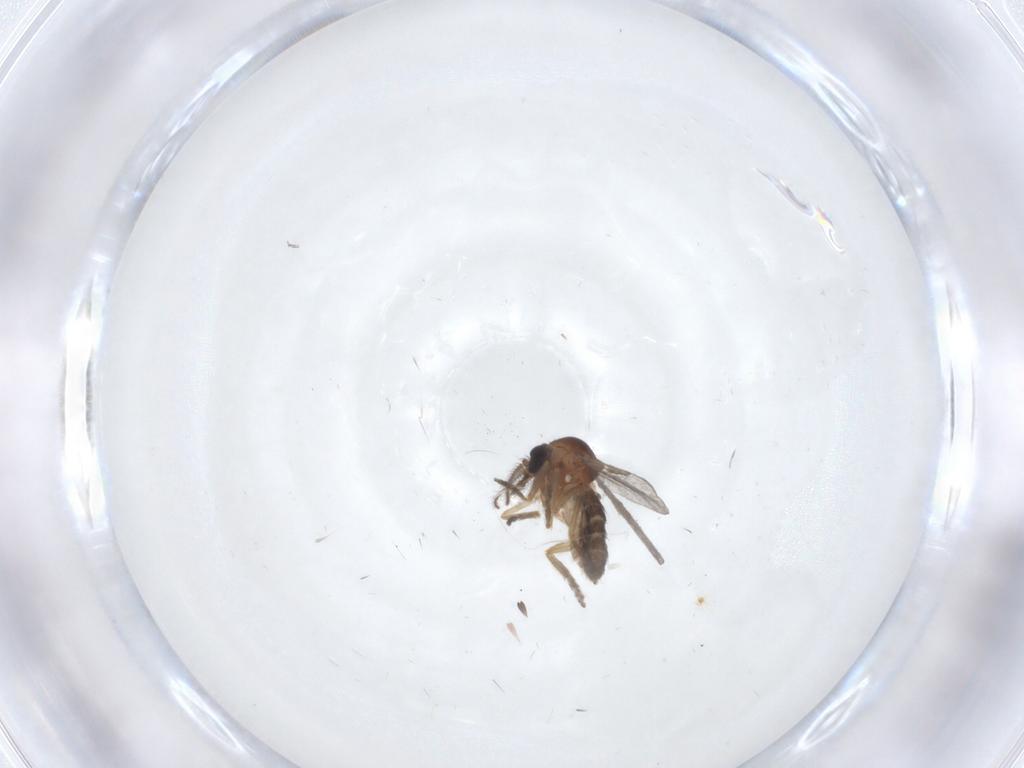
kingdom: Animalia
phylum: Arthropoda
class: Insecta
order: Diptera
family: Ceratopogonidae
